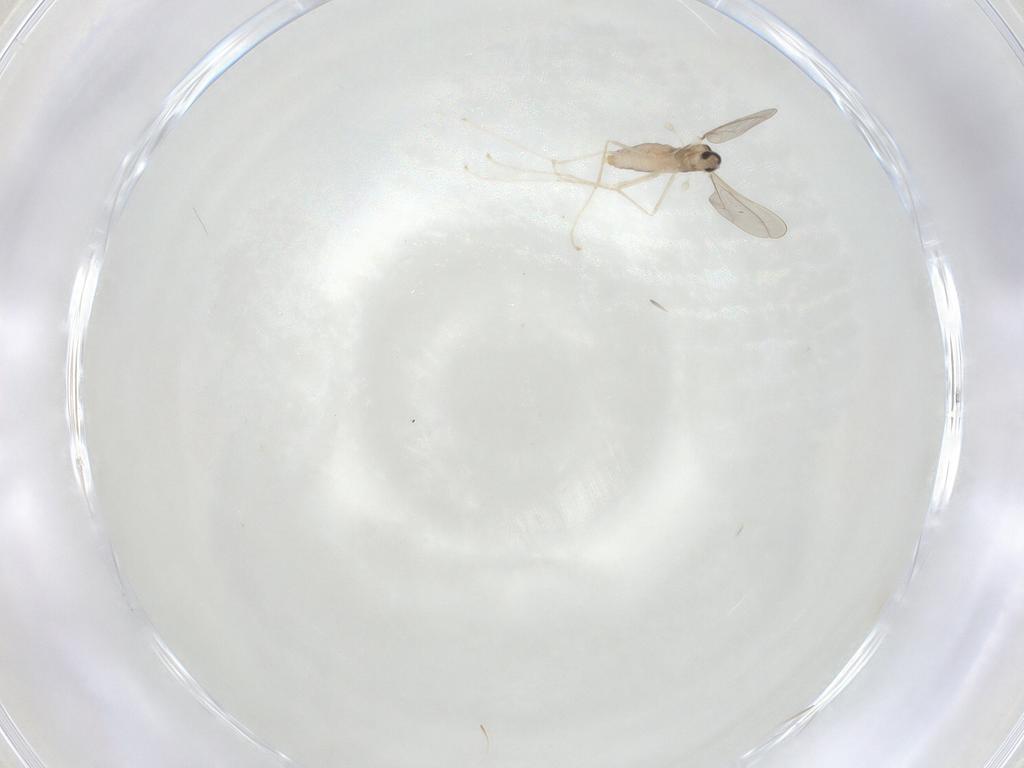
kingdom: Animalia
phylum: Arthropoda
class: Insecta
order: Diptera
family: Cecidomyiidae
